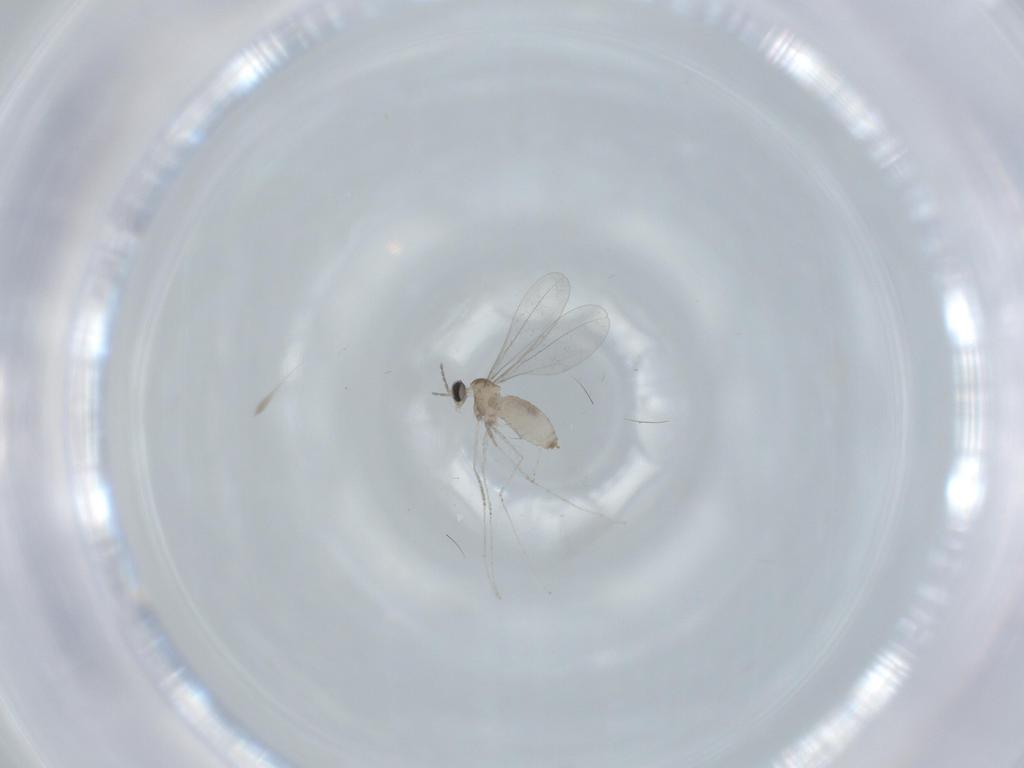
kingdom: Animalia
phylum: Arthropoda
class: Insecta
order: Diptera
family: Cecidomyiidae
